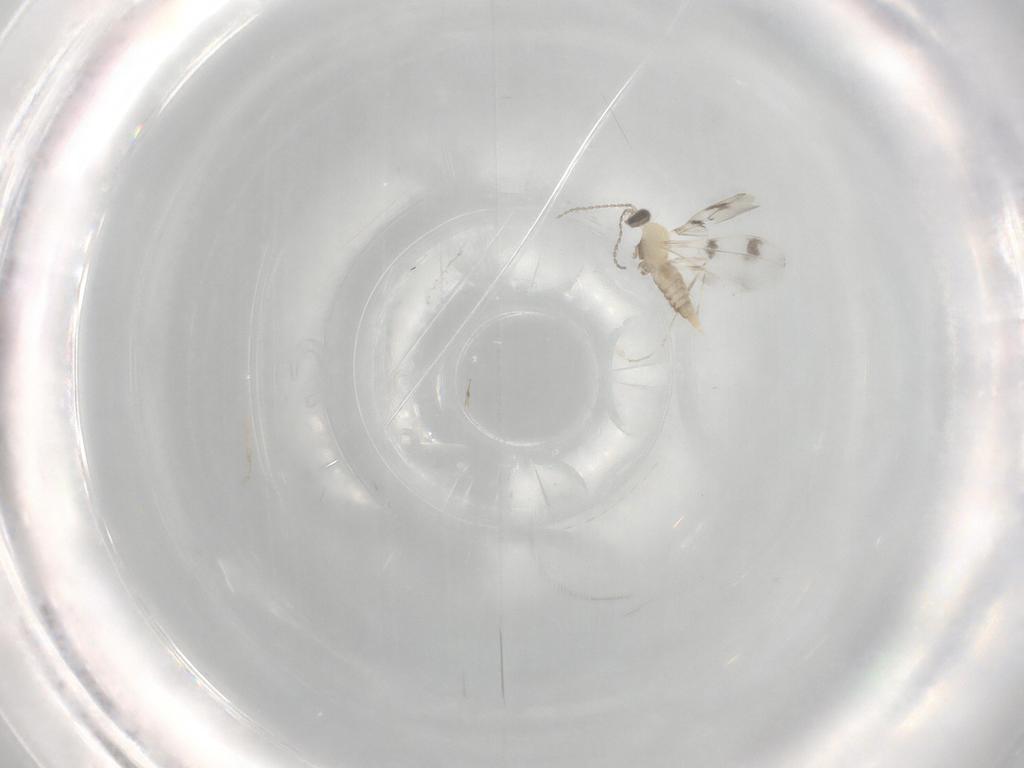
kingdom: Animalia
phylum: Arthropoda
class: Insecta
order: Diptera
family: Cecidomyiidae
